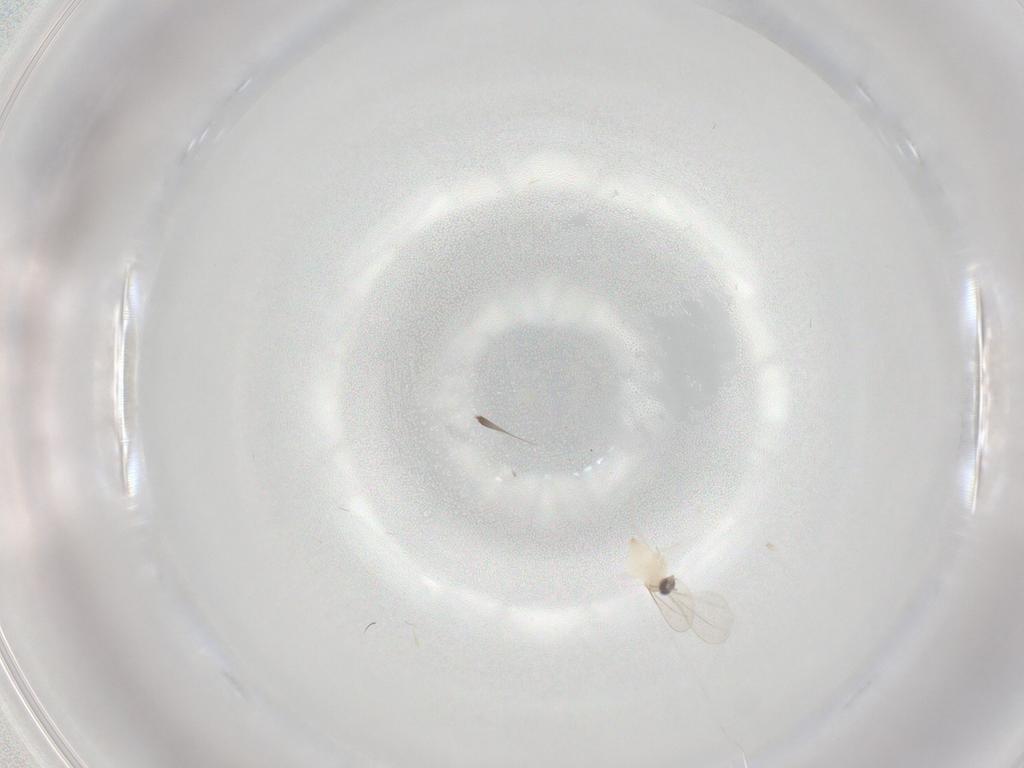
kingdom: Animalia
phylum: Arthropoda
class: Insecta
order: Diptera
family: Cecidomyiidae
